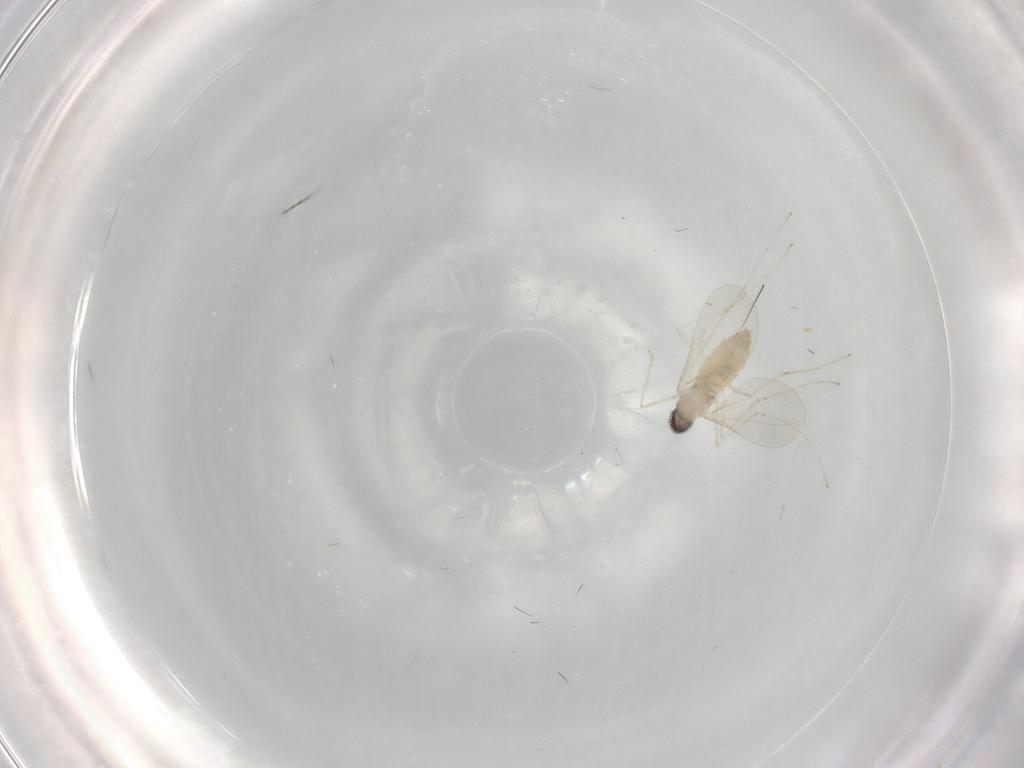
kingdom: Animalia
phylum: Arthropoda
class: Insecta
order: Diptera
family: Cecidomyiidae
